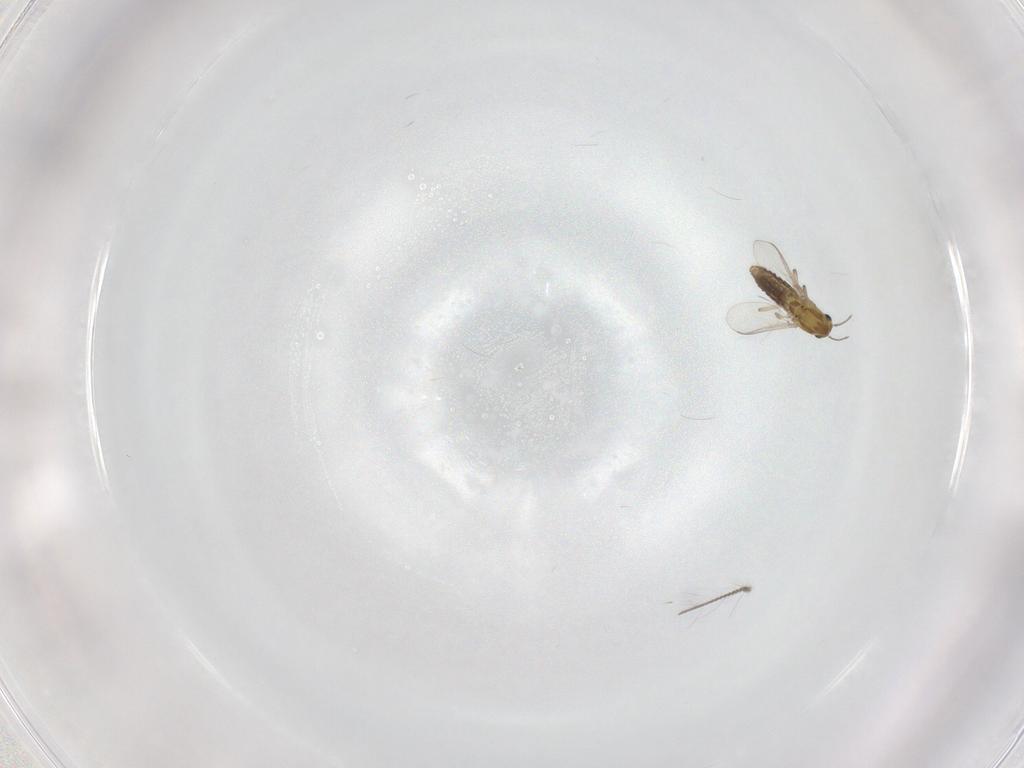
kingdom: Animalia
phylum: Arthropoda
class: Insecta
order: Diptera
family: Chironomidae
